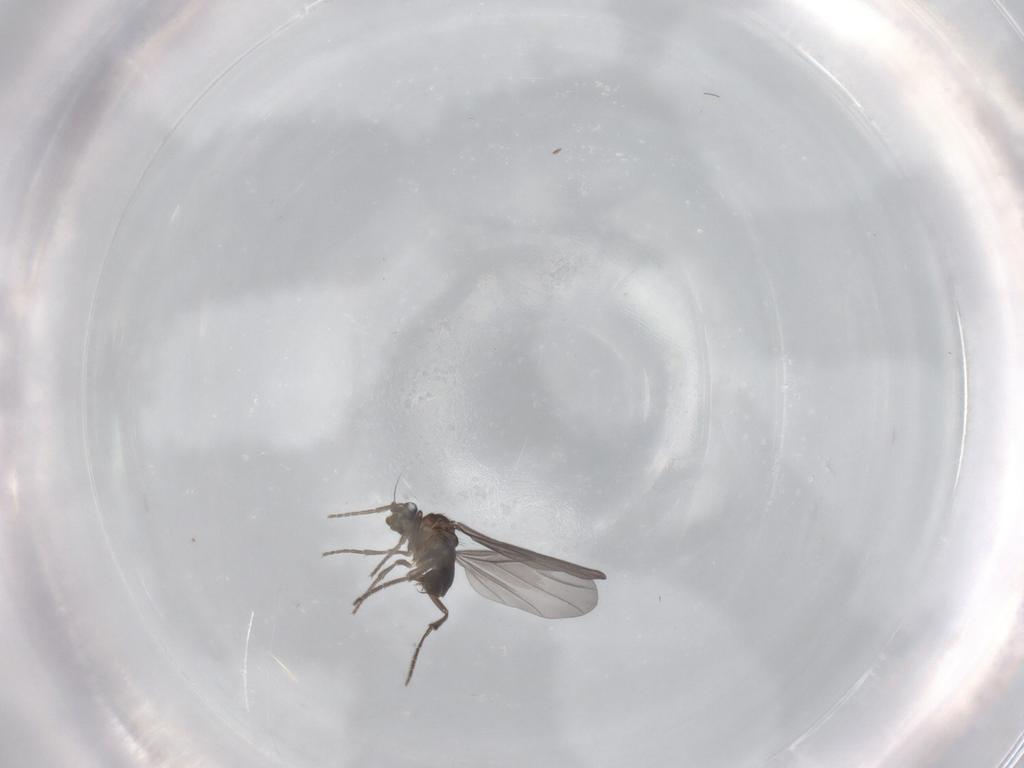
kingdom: Animalia
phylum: Arthropoda
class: Insecta
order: Diptera
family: Phoridae
